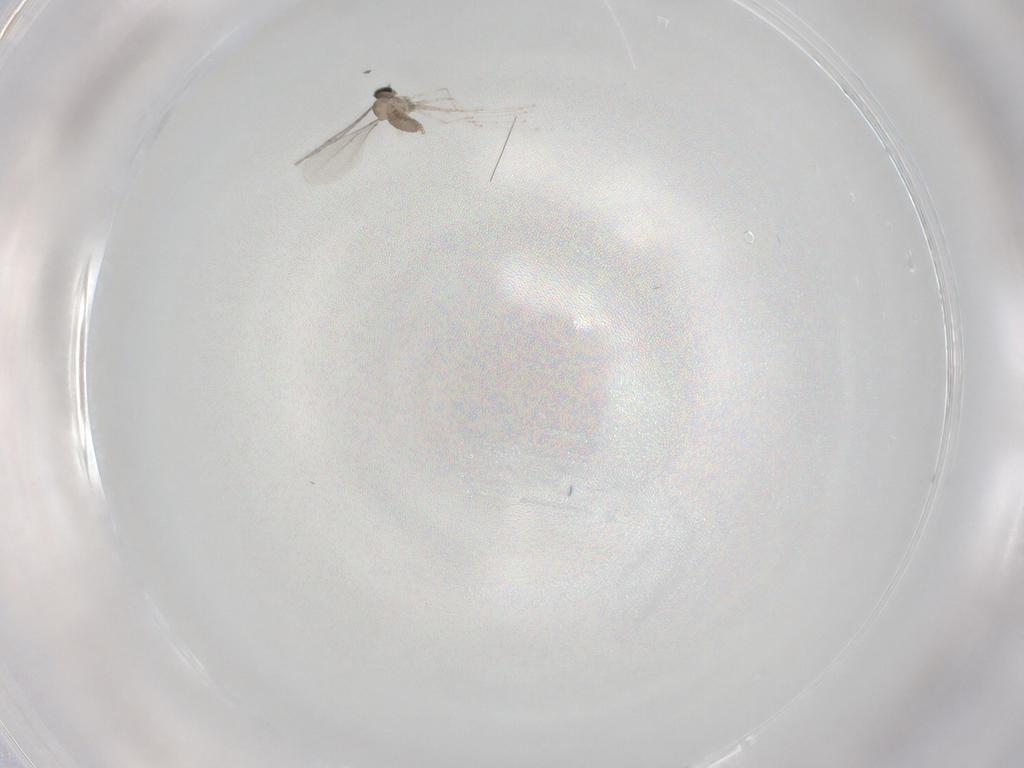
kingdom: Animalia
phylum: Arthropoda
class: Insecta
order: Diptera
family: Cecidomyiidae
